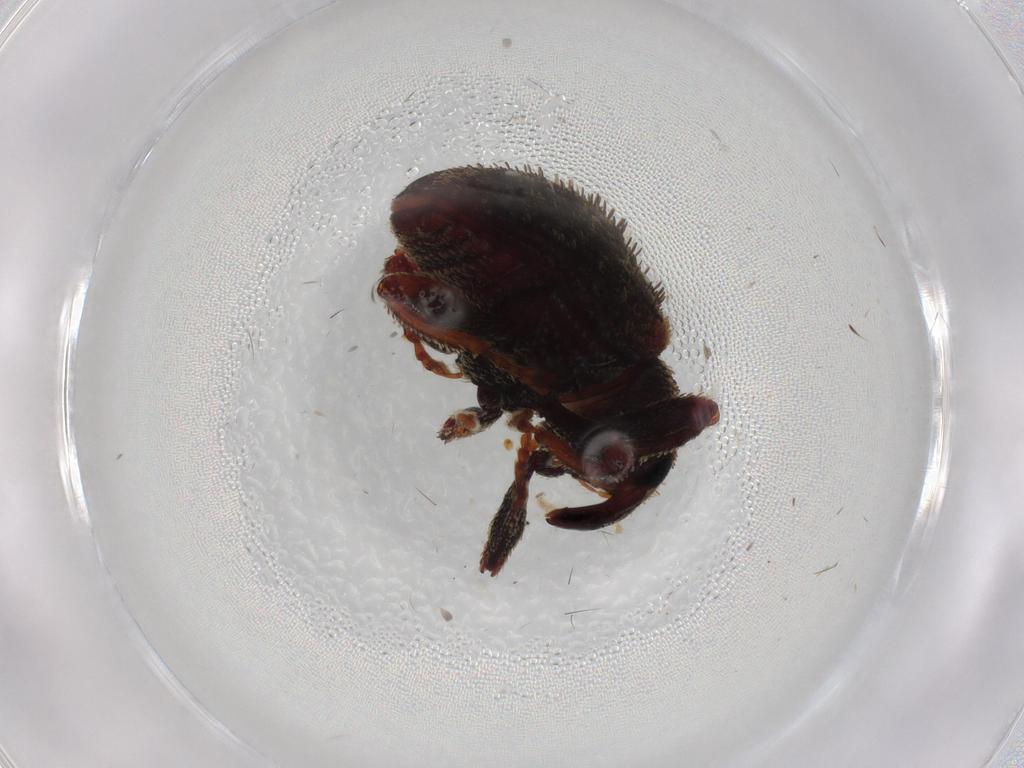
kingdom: Animalia
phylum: Arthropoda
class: Insecta
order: Coleoptera
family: Curculionidae
